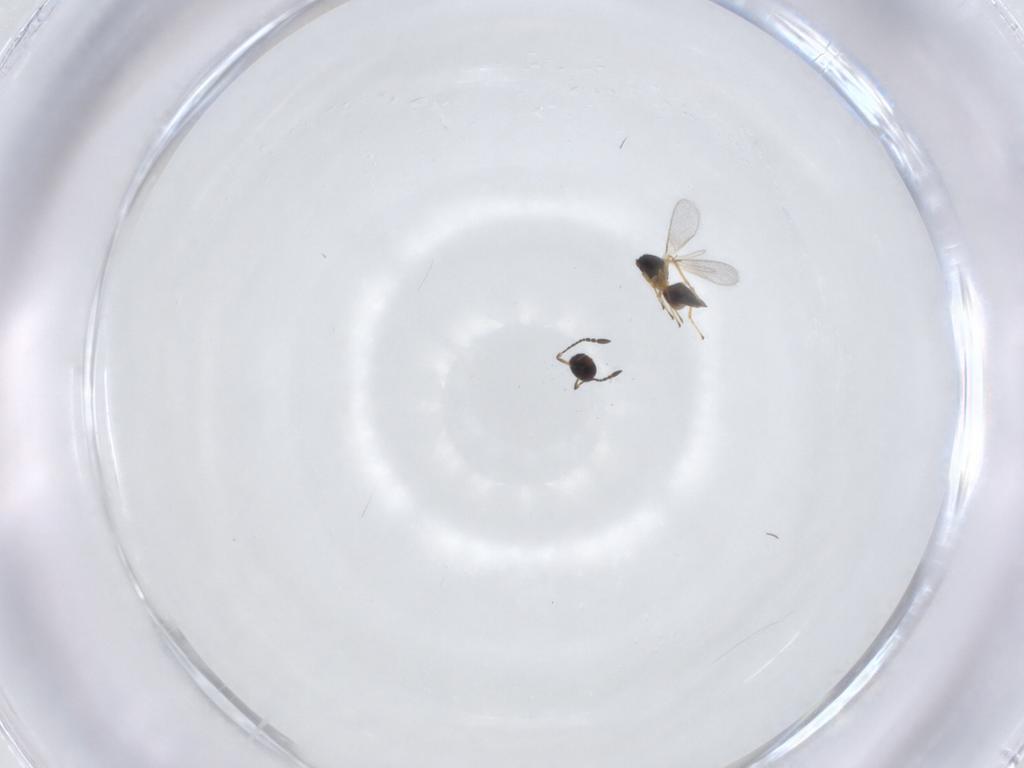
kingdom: Animalia
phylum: Arthropoda
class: Insecta
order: Hymenoptera
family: Mymaridae
